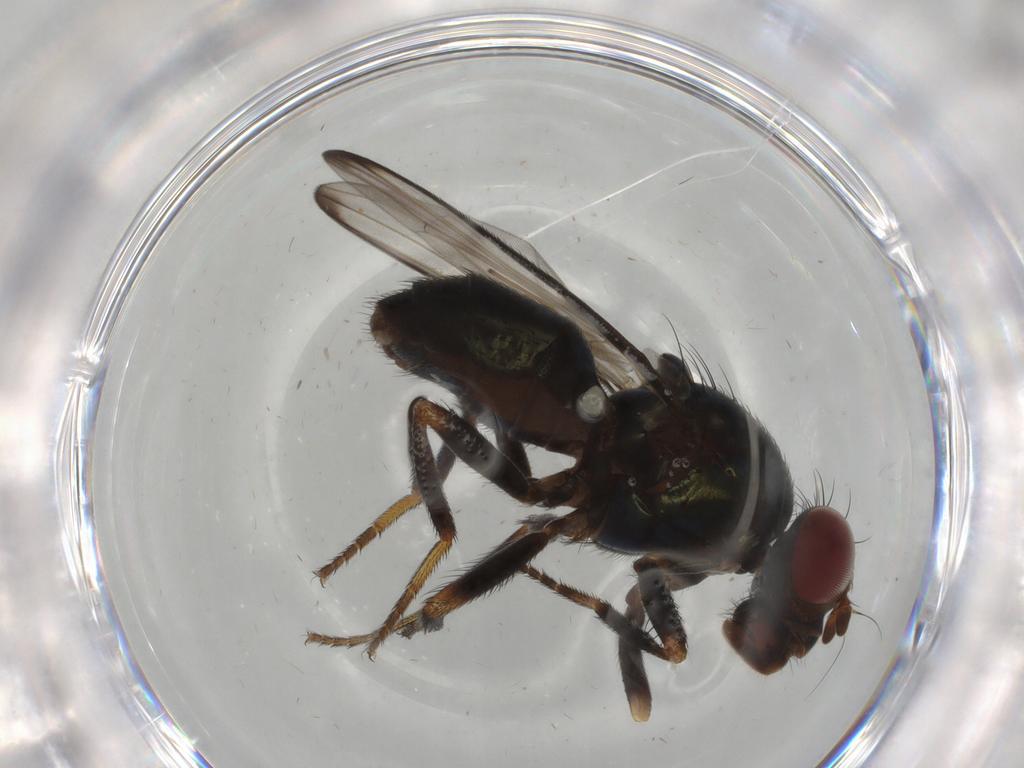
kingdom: Animalia
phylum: Arthropoda
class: Insecta
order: Diptera
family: Ulidiidae
